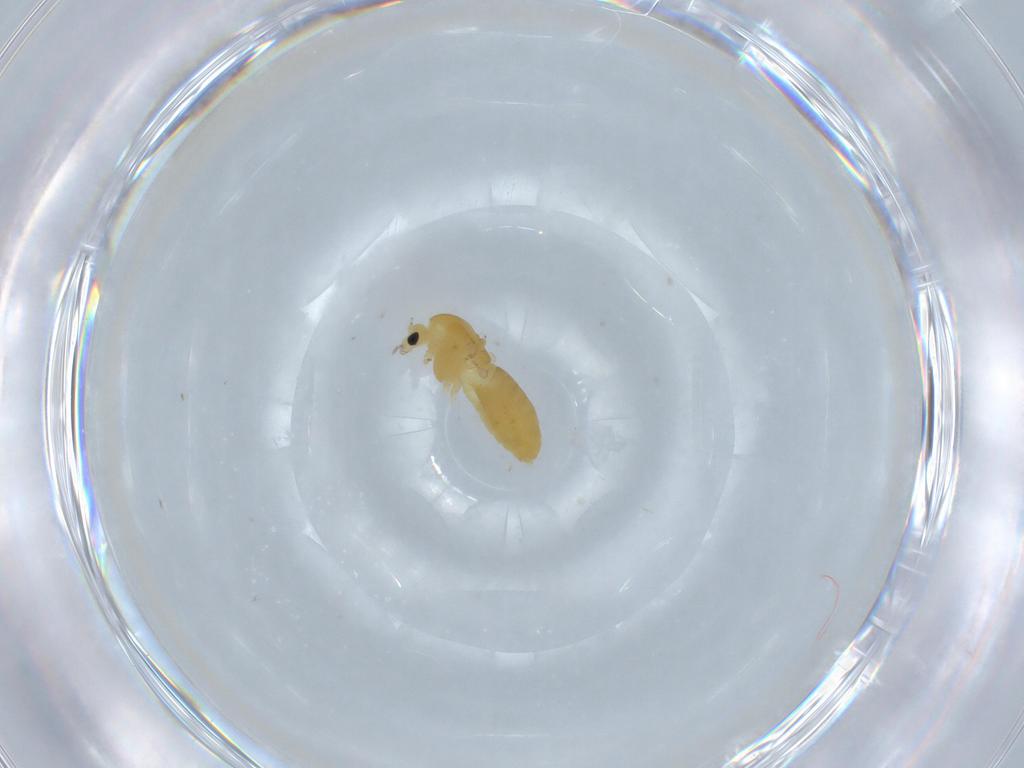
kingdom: Animalia
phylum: Arthropoda
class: Insecta
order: Diptera
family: Chironomidae
